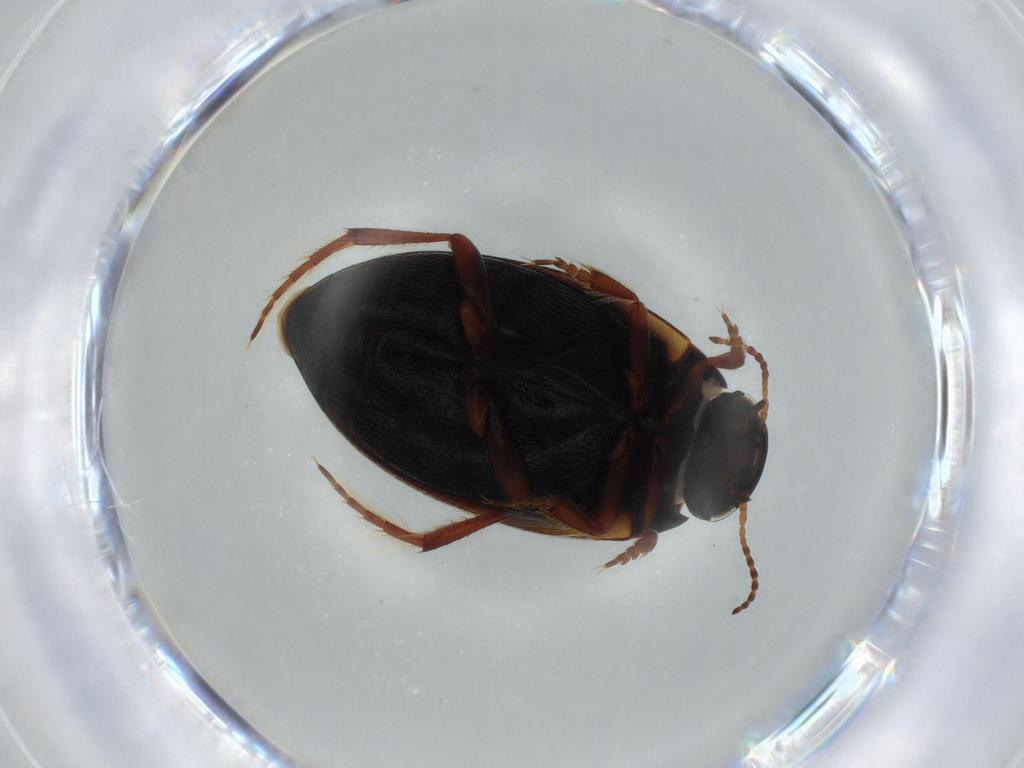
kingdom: Animalia
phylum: Arthropoda
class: Insecta
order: Coleoptera
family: Dytiscidae
